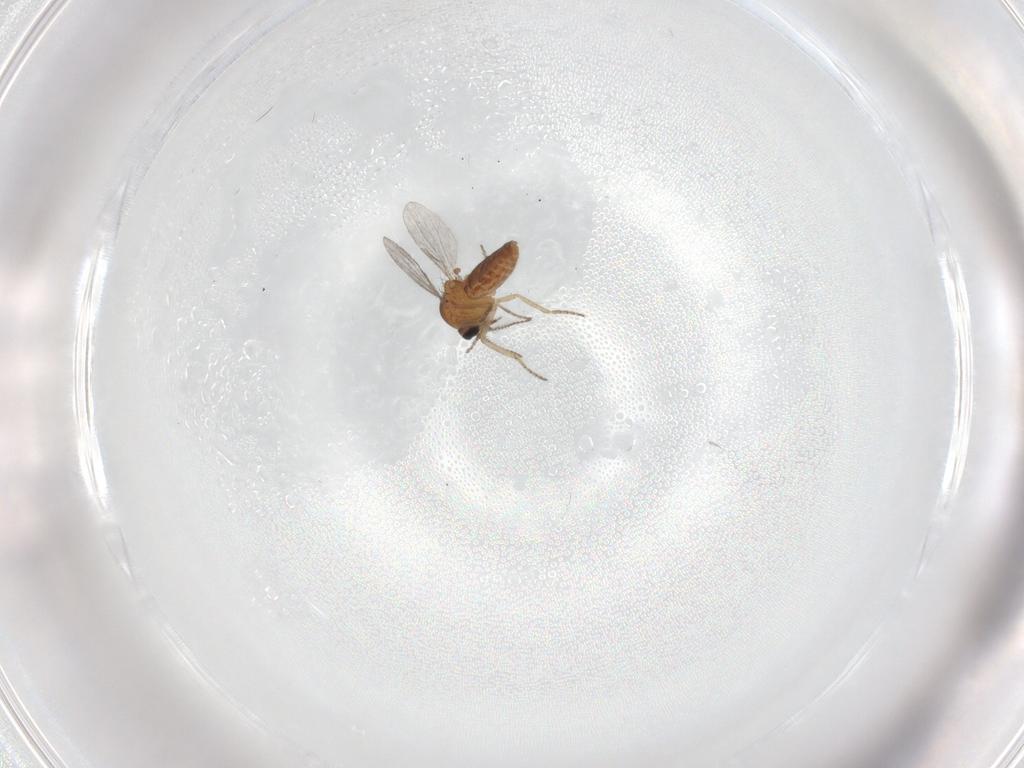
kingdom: Animalia
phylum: Arthropoda
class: Insecta
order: Diptera
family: Ceratopogonidae
